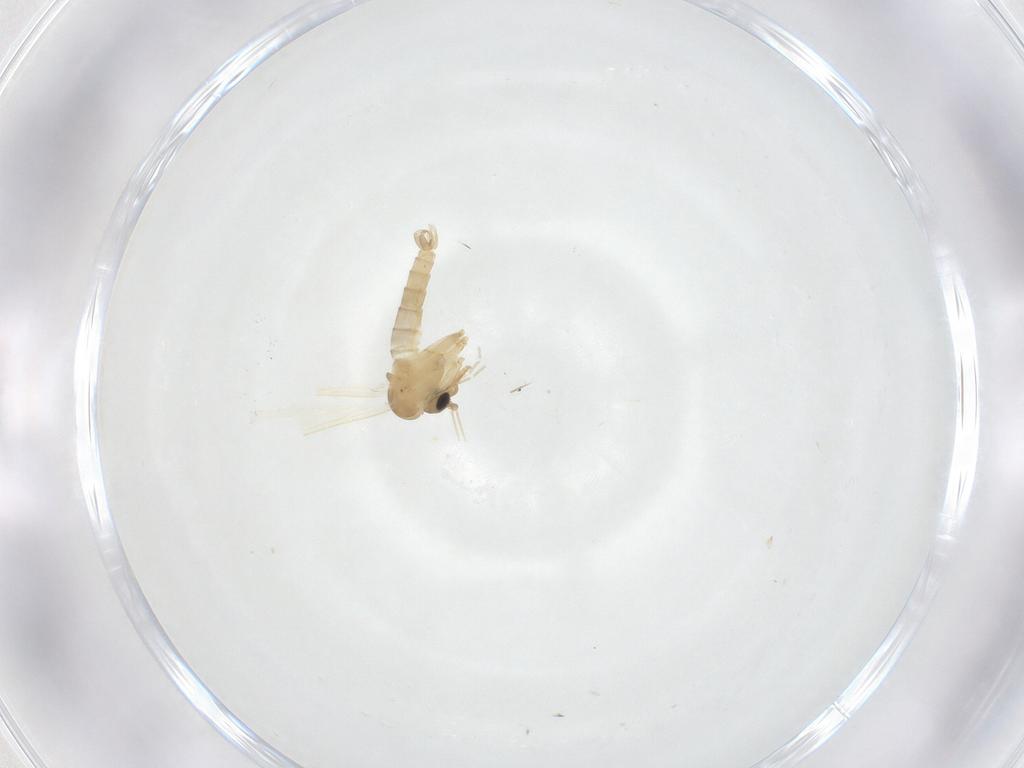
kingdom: Animalia
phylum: Arthropoda
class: Insecta
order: Diptera
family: Anthomyiidae
